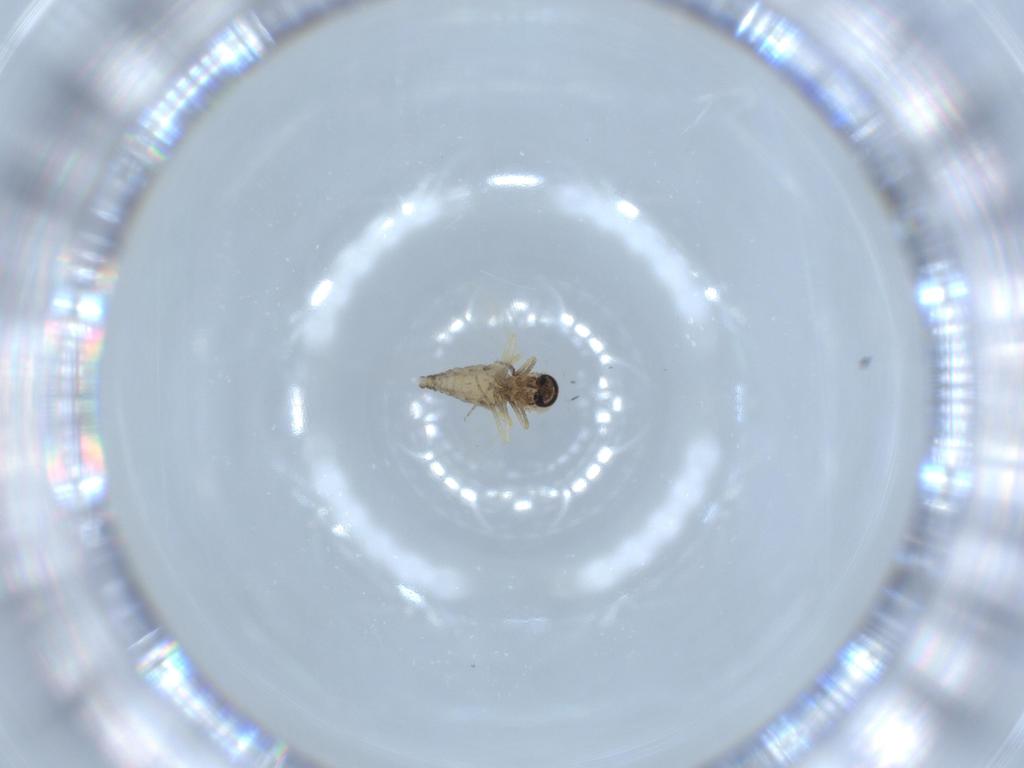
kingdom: Animalia
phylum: Arthropoda
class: Insecta
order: Diptera
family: Ceratopogonidae
